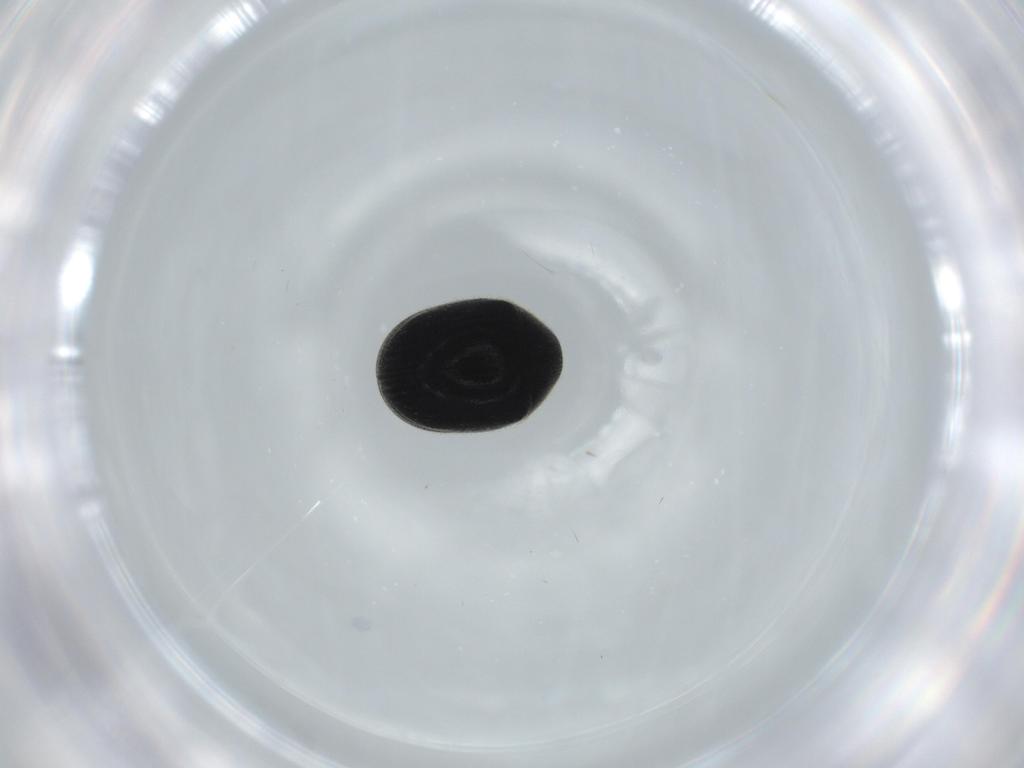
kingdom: Animalia
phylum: Arthropoda
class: Insecta
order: Coleoptera
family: Ptinidae
